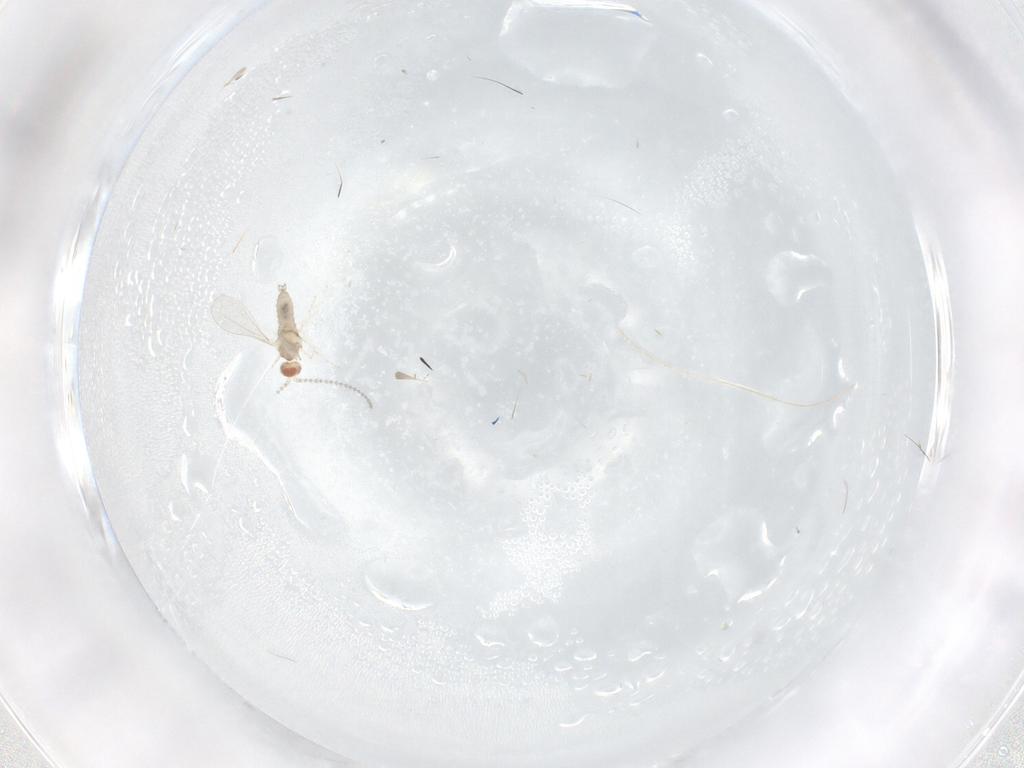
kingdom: Animalia
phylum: Arthropoda
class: Insecta
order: Diptera
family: Cecidomyiidae
